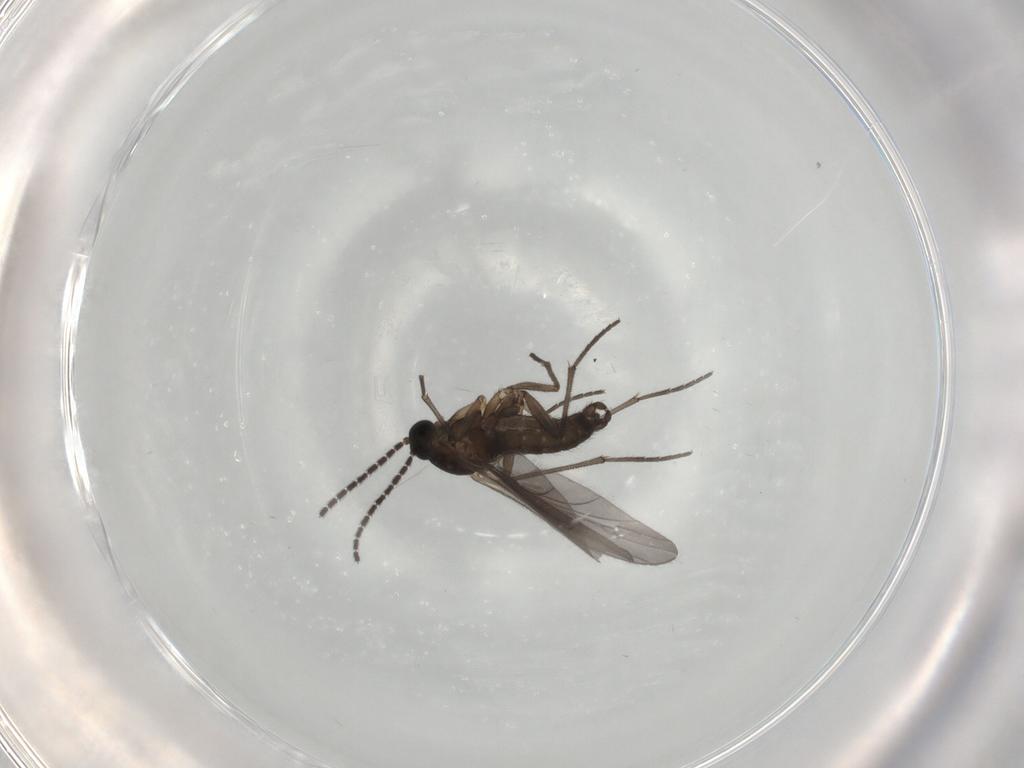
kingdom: Animalia
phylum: Arthropoda
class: Insecta
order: Diptera
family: Sciaridae
